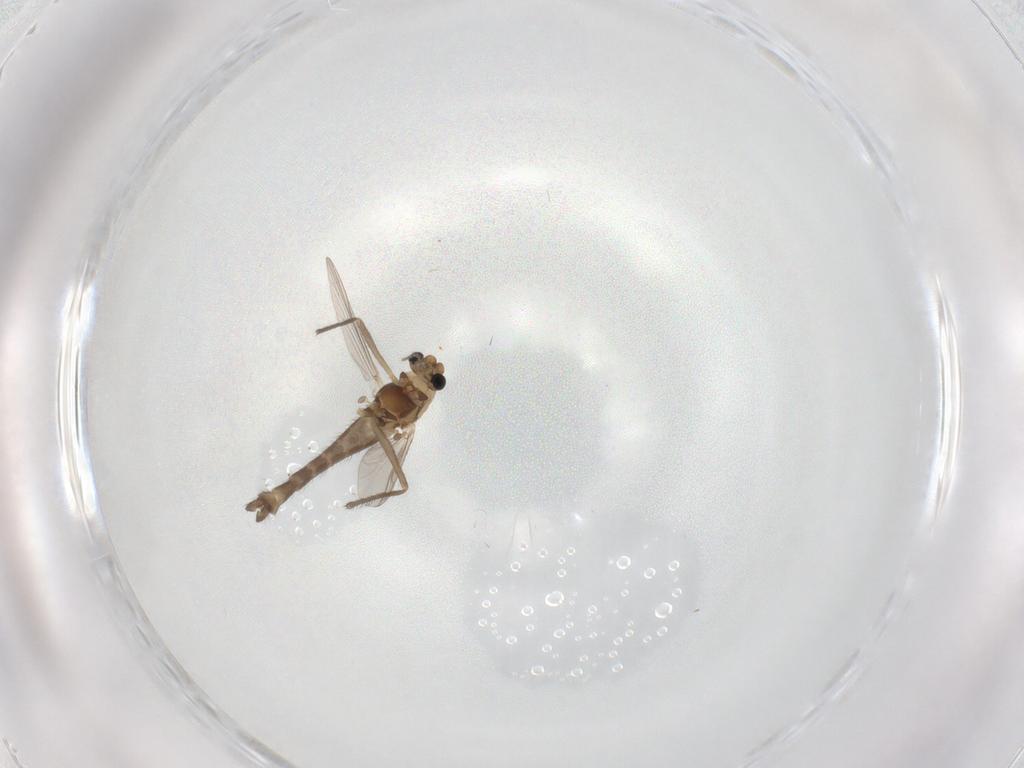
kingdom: Animalia
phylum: Arthropoda
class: Insecta
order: Diptera
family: Chironomidae
